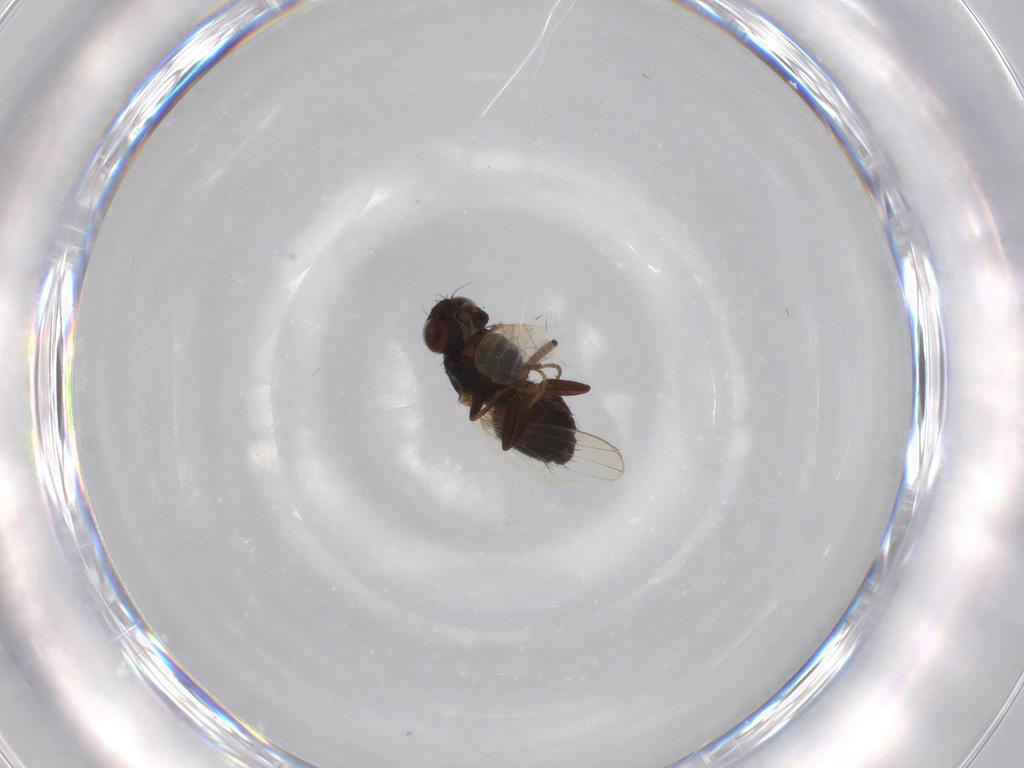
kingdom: Animalia
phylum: Arthropoda
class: Insecta
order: Diptera
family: Carnidae
